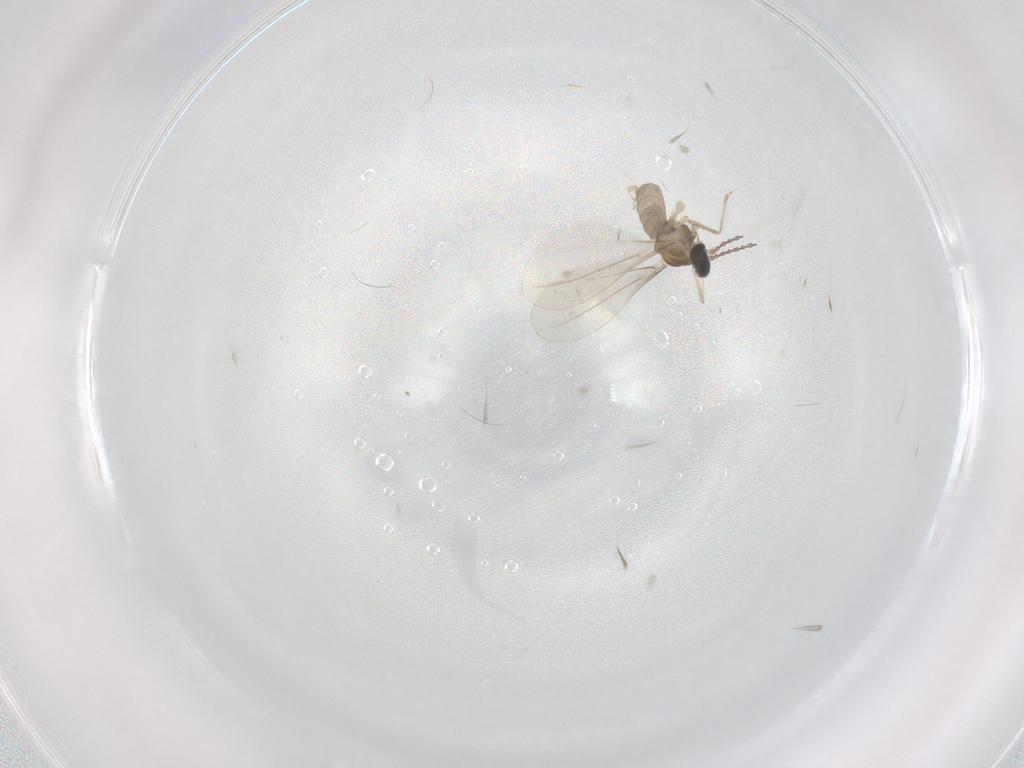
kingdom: Animalia
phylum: Arthropoda
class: Insecta
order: Diptera
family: Cecidomyiidae
